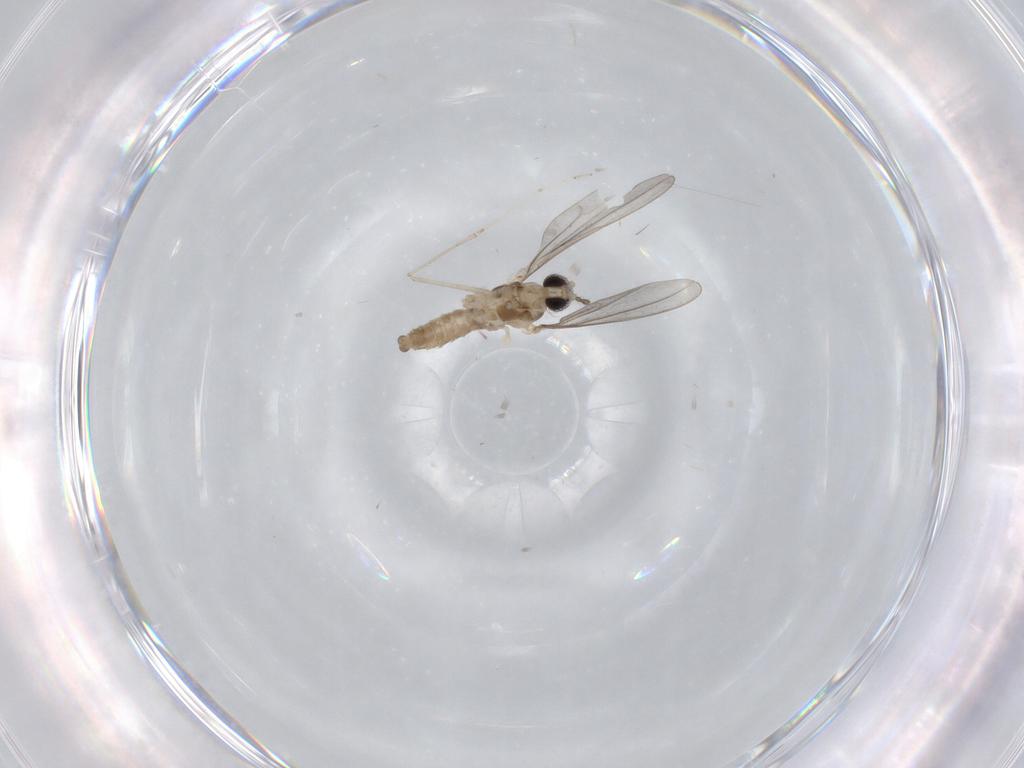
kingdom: Animalia
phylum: Arthropoda
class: Insecta
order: Diptera
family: Cecidomyiidae
